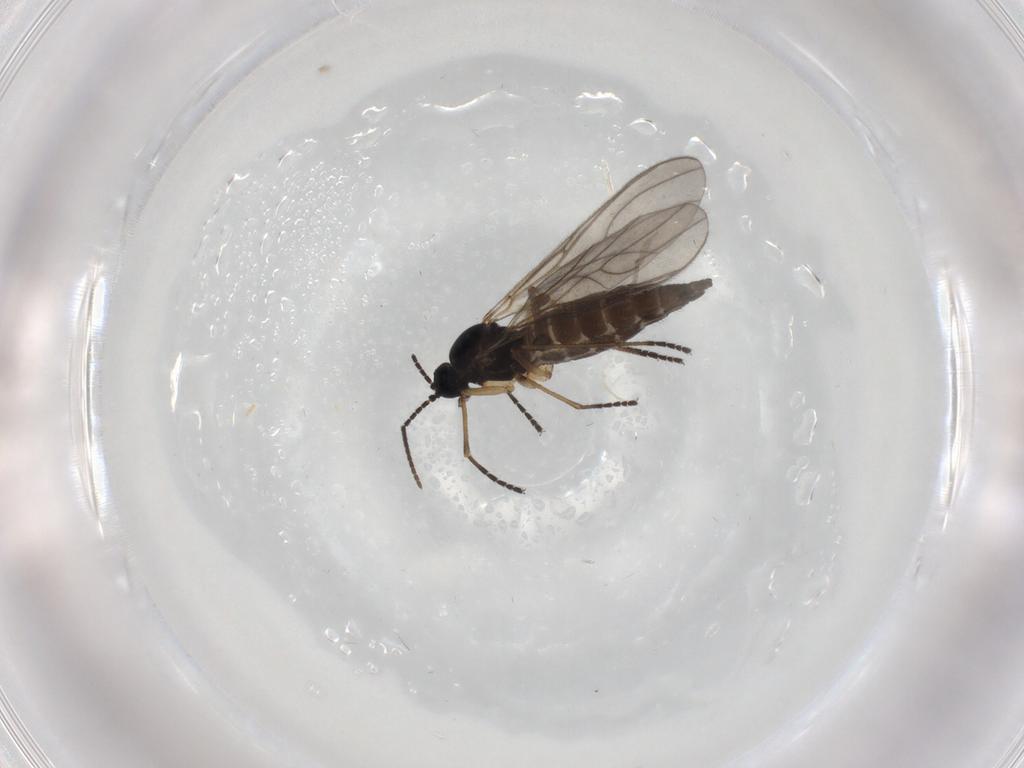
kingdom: Animalia
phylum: Arthropoda
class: Insecta
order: Diptera
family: Sciaridae
